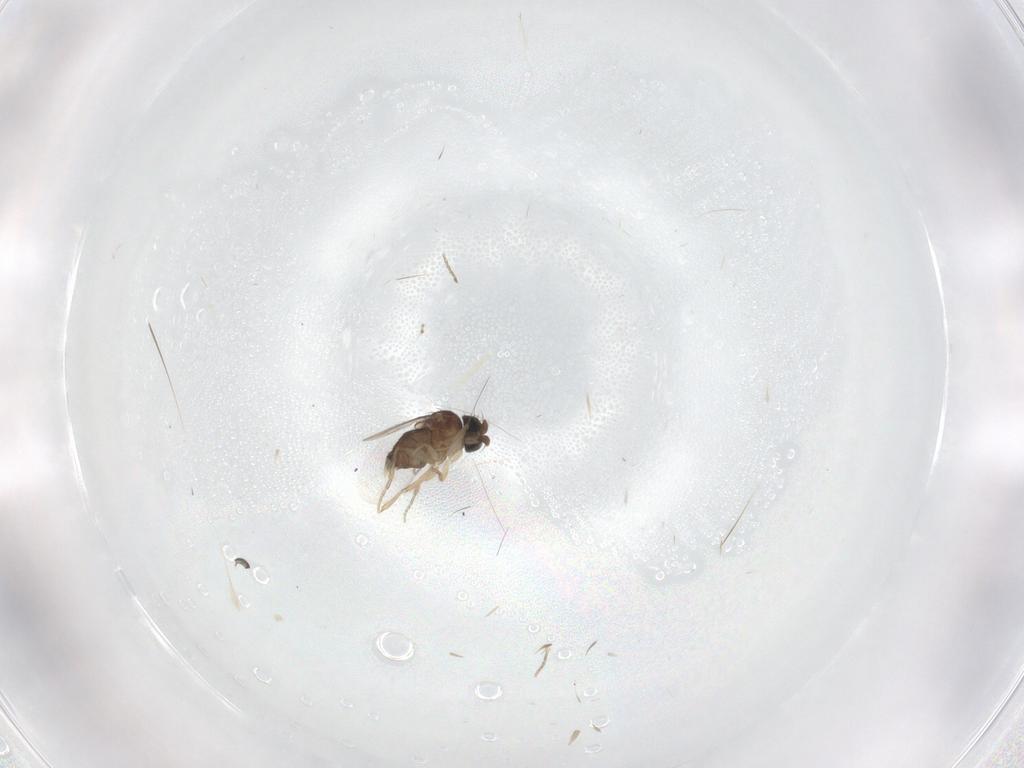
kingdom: Animalia
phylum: Arthropoda
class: Insecta
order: Diptera
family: Phoridae
